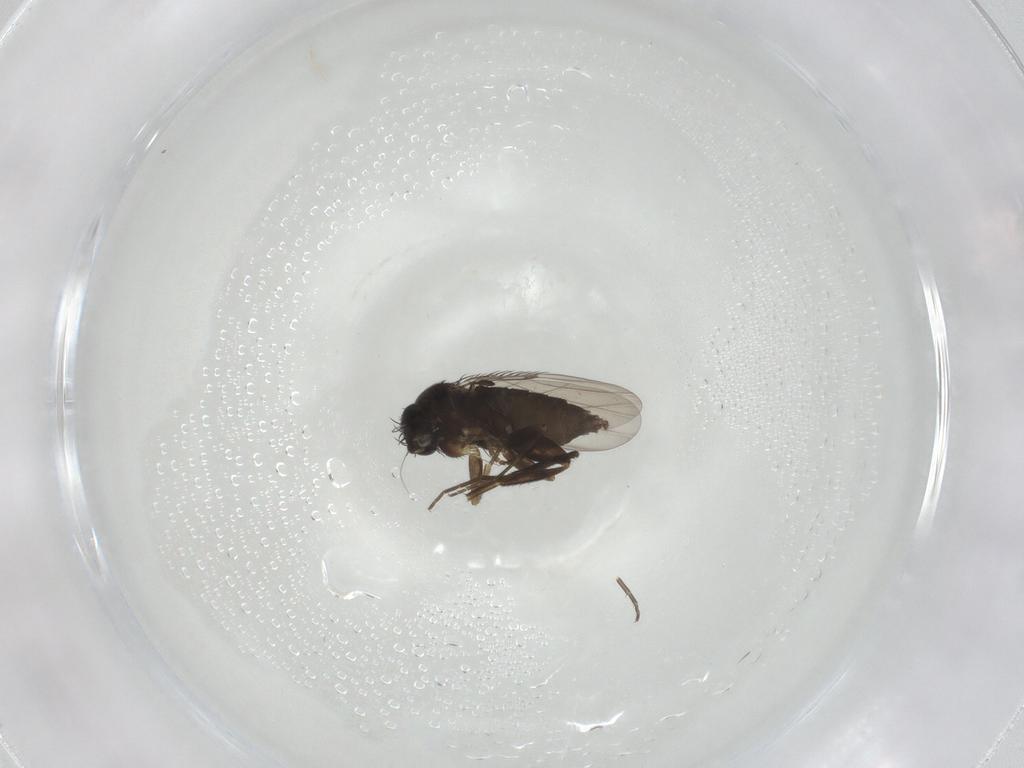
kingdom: Animalia
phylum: Arthropoda
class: Insecta
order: Diptera
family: Phoridae
